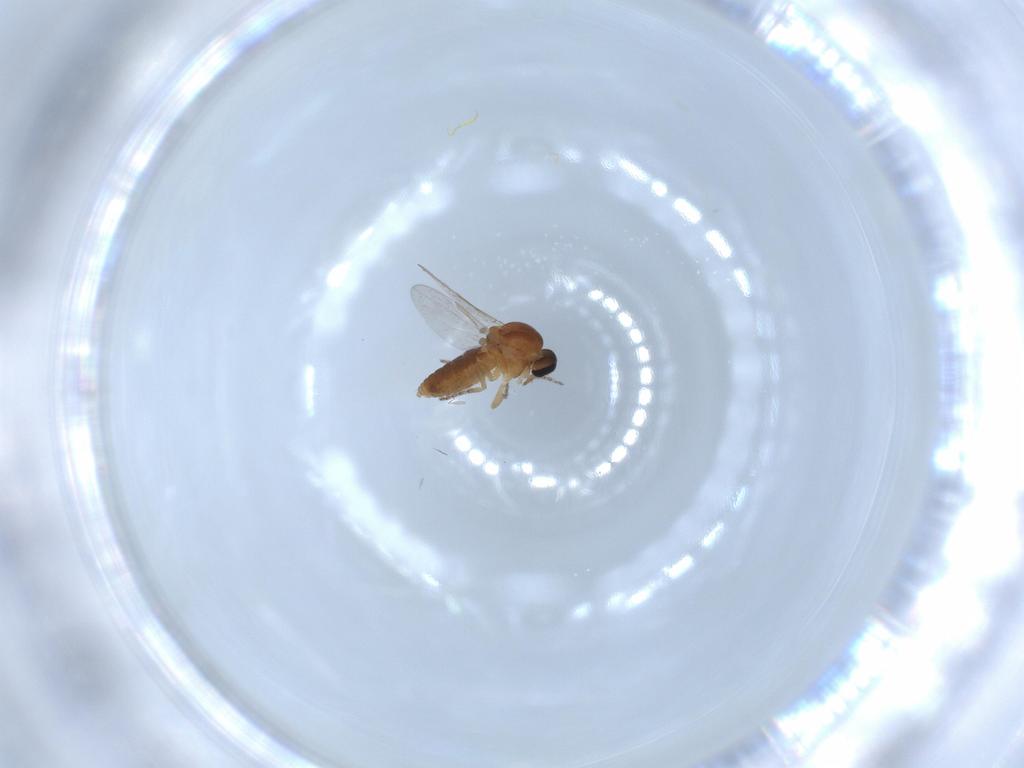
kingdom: Animalia
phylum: Arthropoda
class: Insecta
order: Diptera
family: Ceratopogonidae
